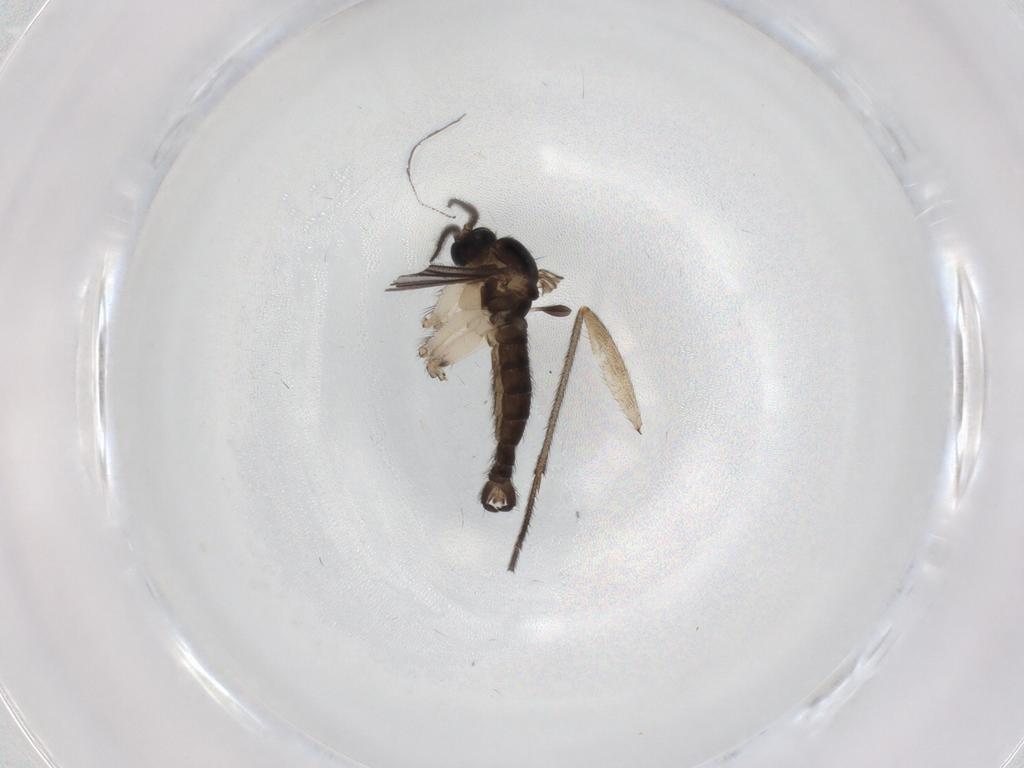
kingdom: Animalia
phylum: Arthropoda
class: Insecta
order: Diptera
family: Sciaridae
